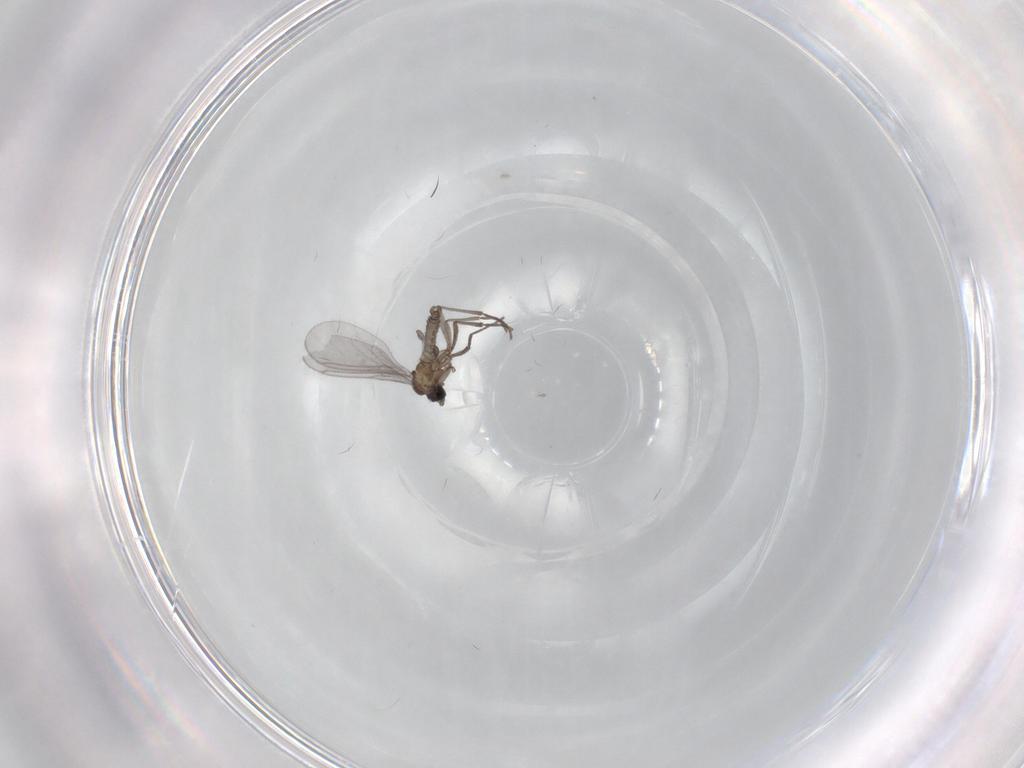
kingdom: Animalia
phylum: Arthropoda
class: Insecta
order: Diptera
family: Sciaridae
